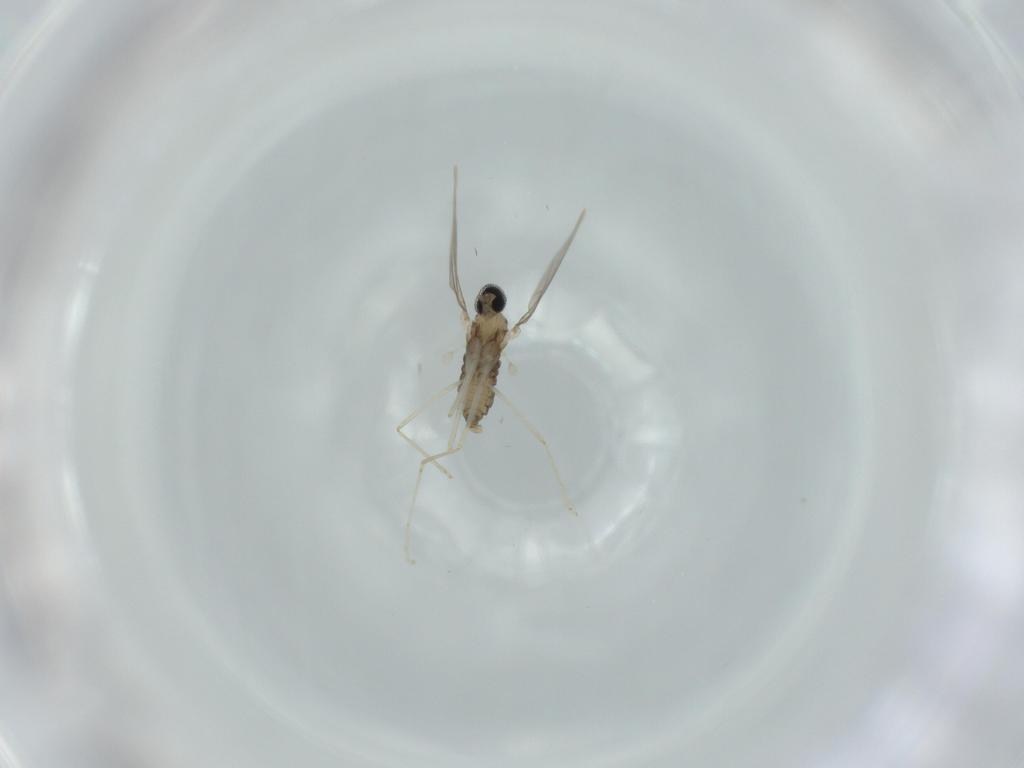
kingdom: Animalia
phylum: Arthropoda
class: Insecta
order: Diptera
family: Cecidomyiidae
